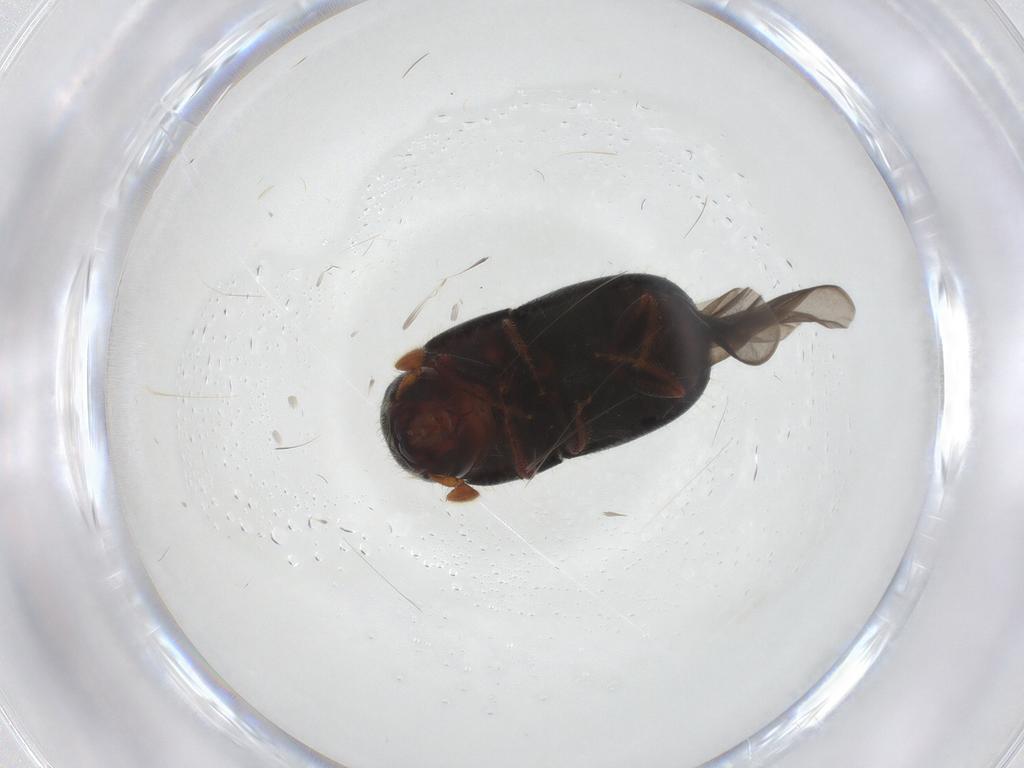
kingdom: Animalia
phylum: Arthropoda
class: Insecta
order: Coleoptera
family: Curculionidae
